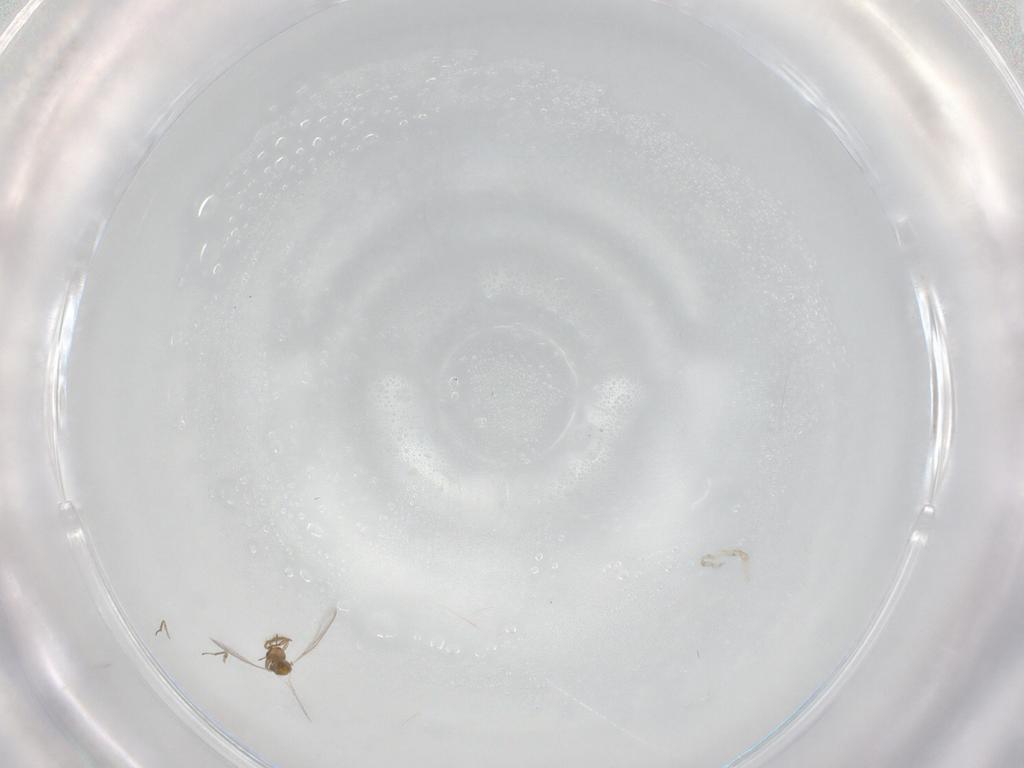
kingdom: Animalia
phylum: Arthropoda
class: Insecta
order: Hymenoptera
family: Aphelinidae
